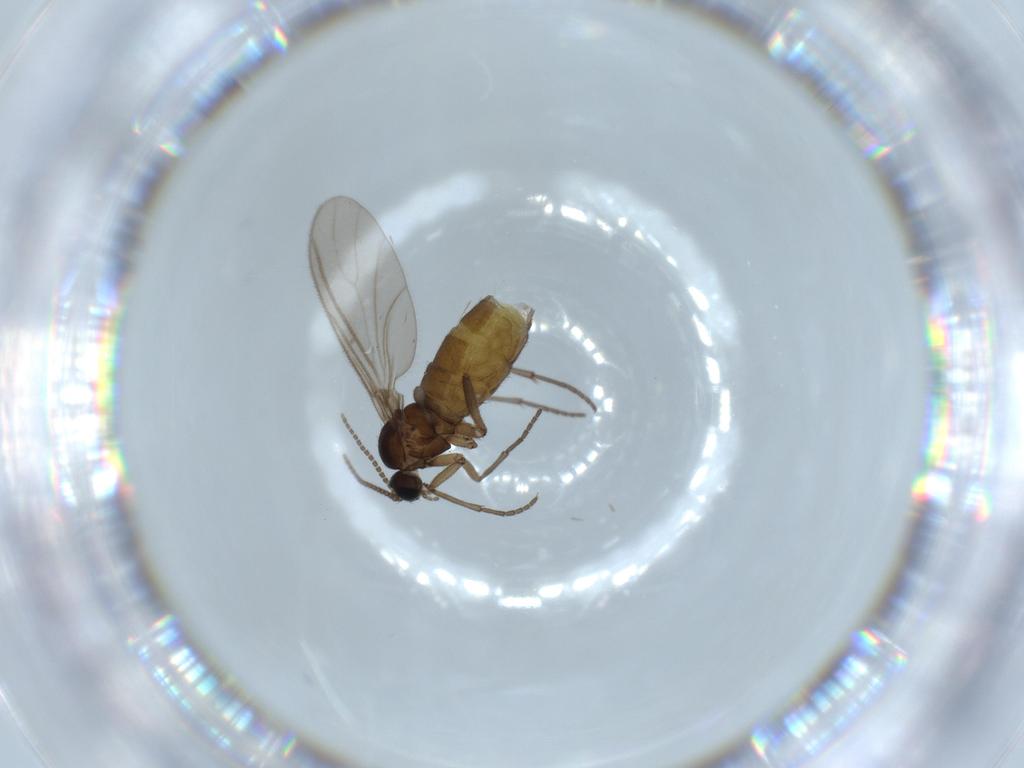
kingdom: Animalia
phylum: Arthropoda
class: Insecta
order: Diptera
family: Sciaridae
